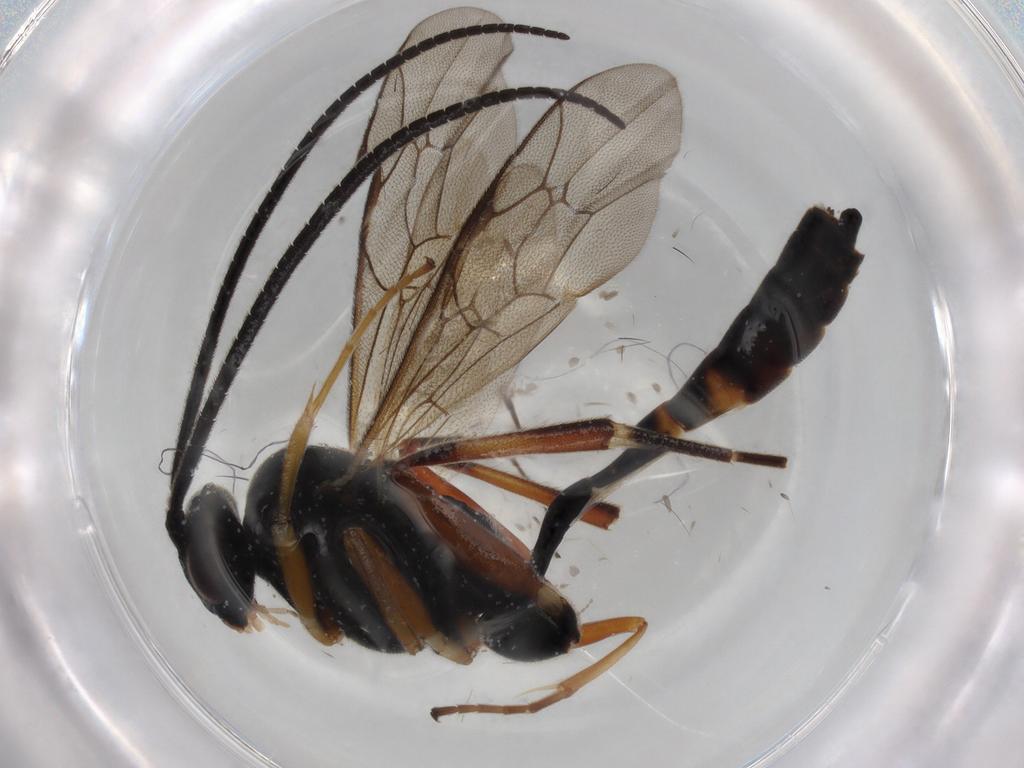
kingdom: Animalia
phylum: Arthropoda
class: Insecta
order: Hymenoptera
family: Ichneumonidae
